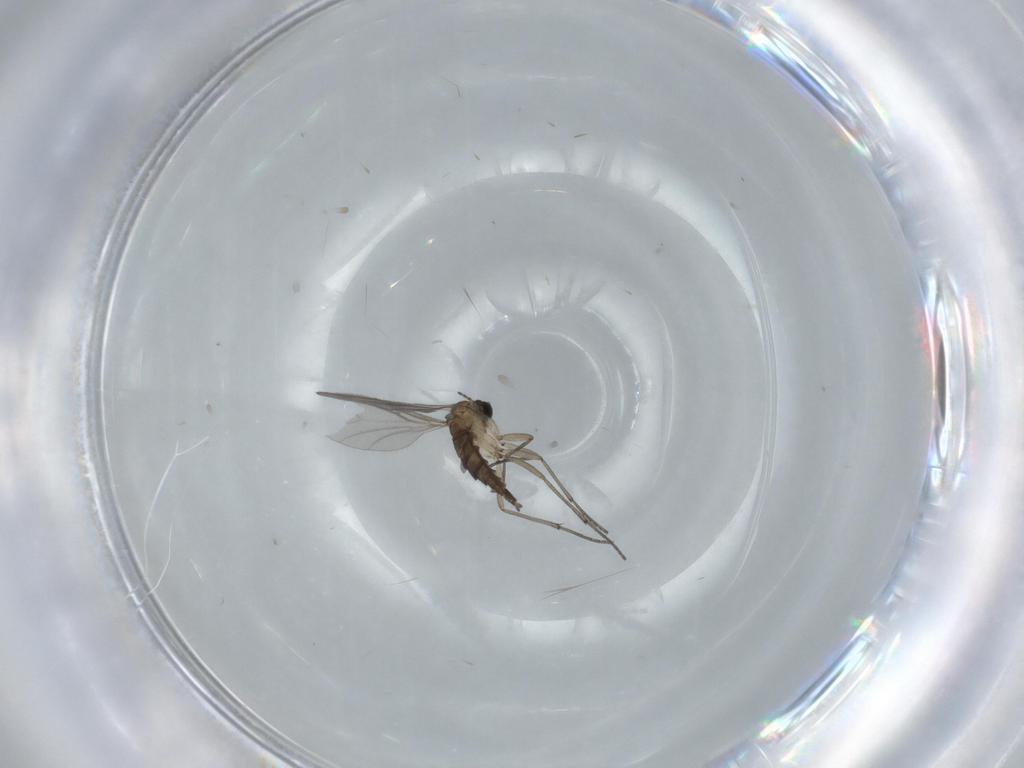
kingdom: Animalia
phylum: Arthropoda
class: Insecta
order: Diptera
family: Sciaridae
